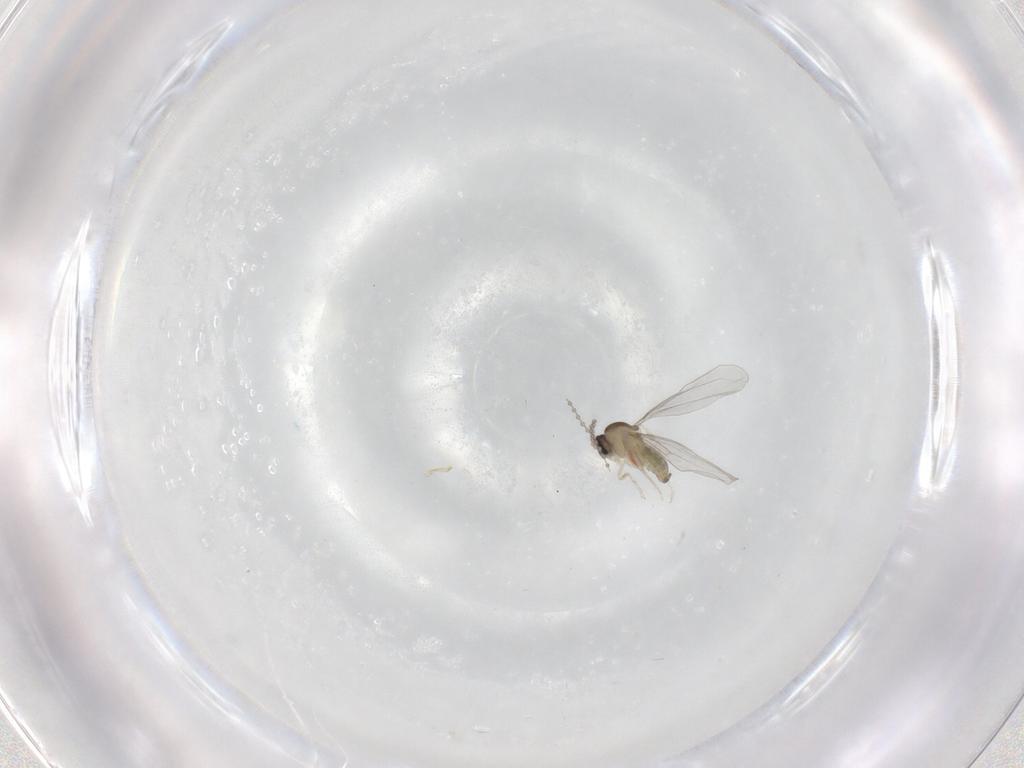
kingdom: Animalia
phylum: Arthropoda
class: Insecta
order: Diptera
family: Cecidomyiidae
